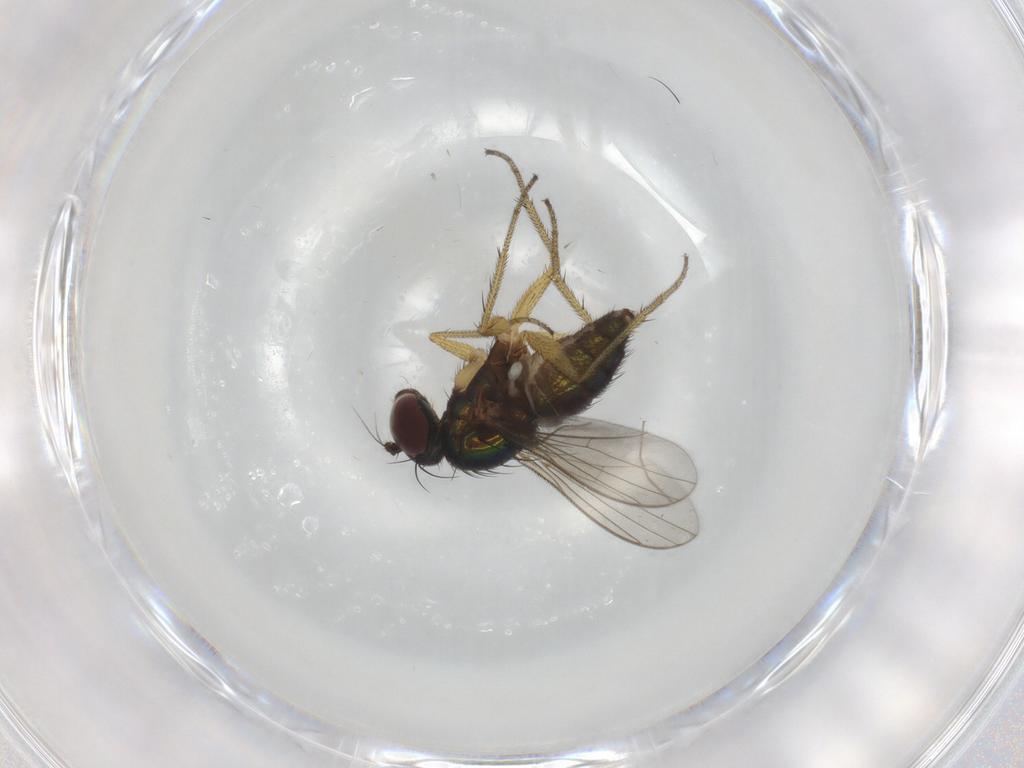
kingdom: Animalia
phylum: Arthropoda
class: Insecta
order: Diptera
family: Dolichopodidae
